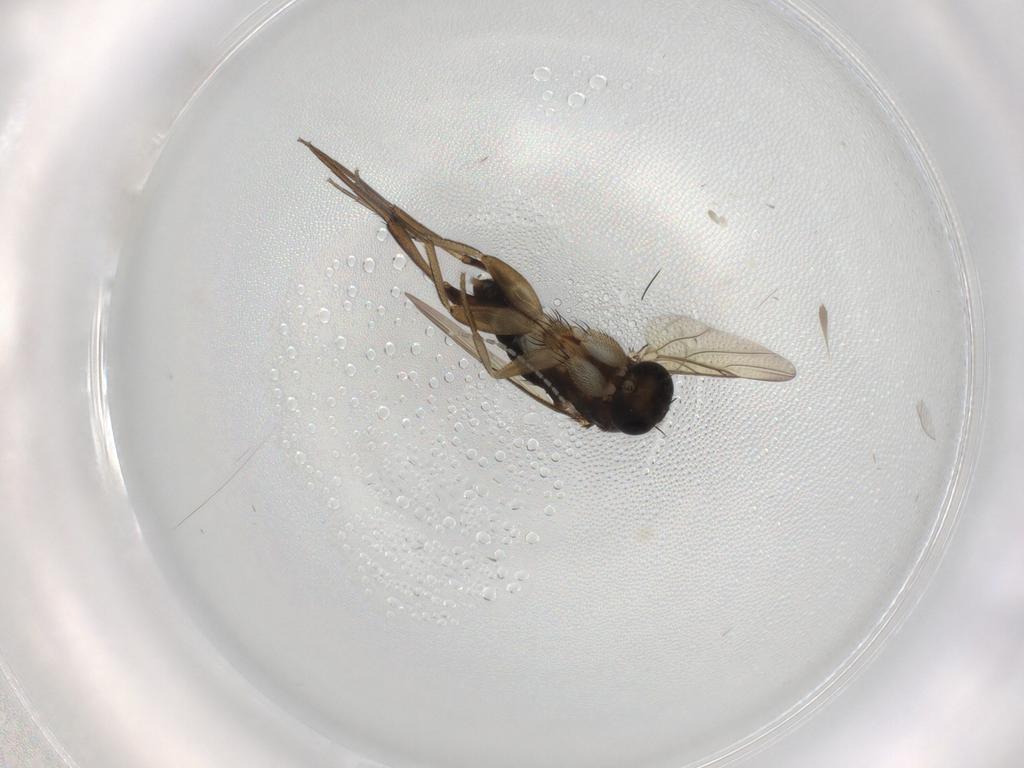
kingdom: Animalia
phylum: Arthropoda
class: Insecta
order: Diptera
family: Phoridae
